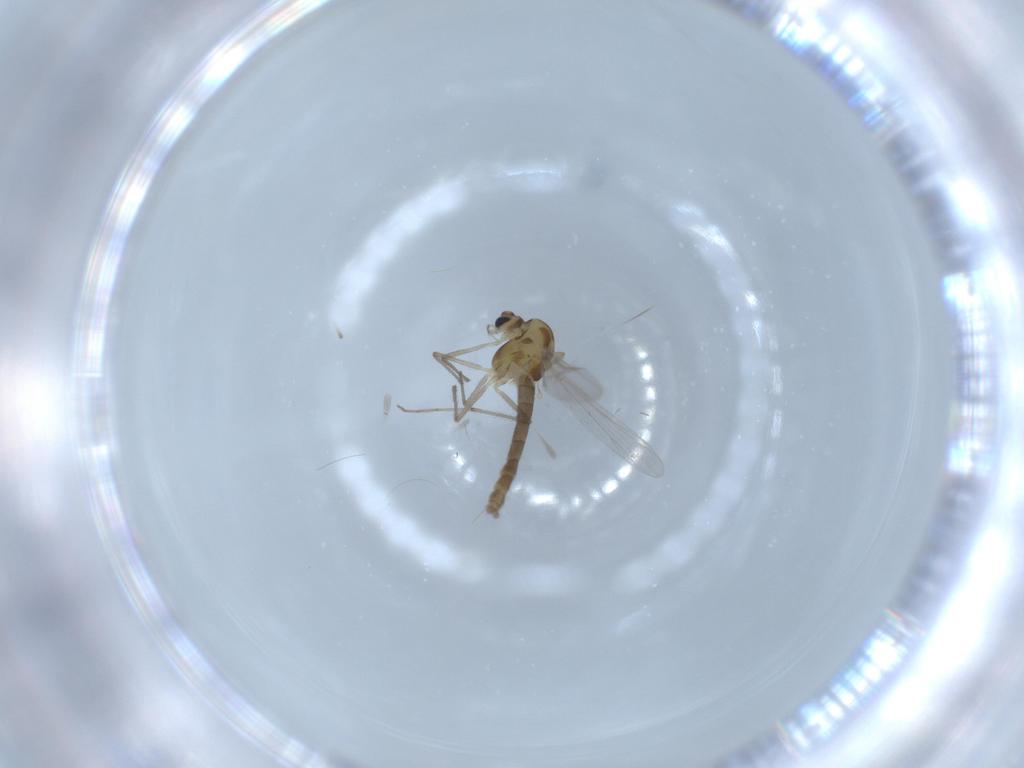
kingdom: Animalia
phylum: Arthropoda
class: Insecta
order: Diptera
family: Chironomidae
